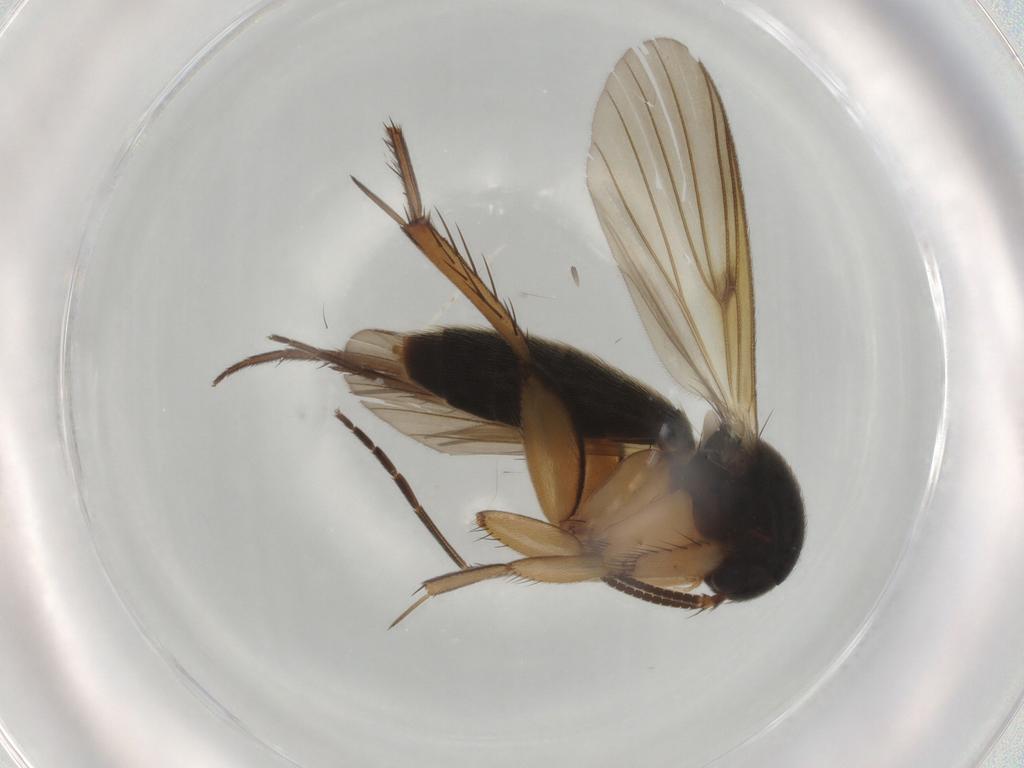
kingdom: Animalia
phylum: Arthropoda
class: Insecta
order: Diptera
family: Mycetophilidae
